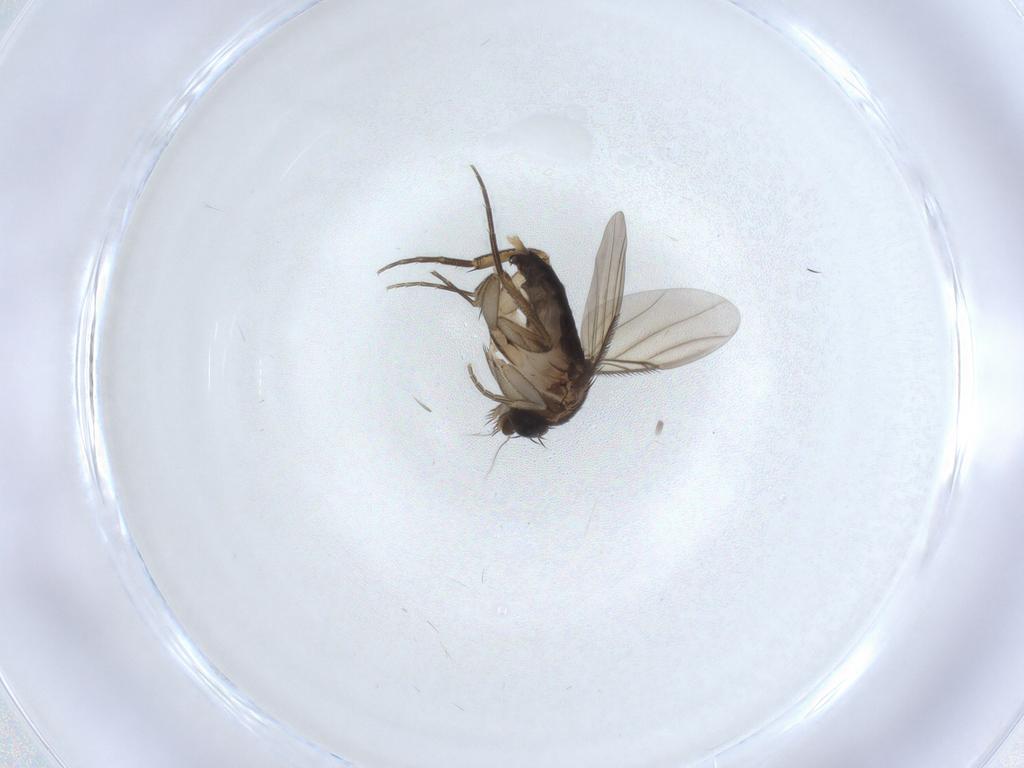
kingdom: Animalia
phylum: Arthropoda
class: Insecta
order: Diptera
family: Phoridae
